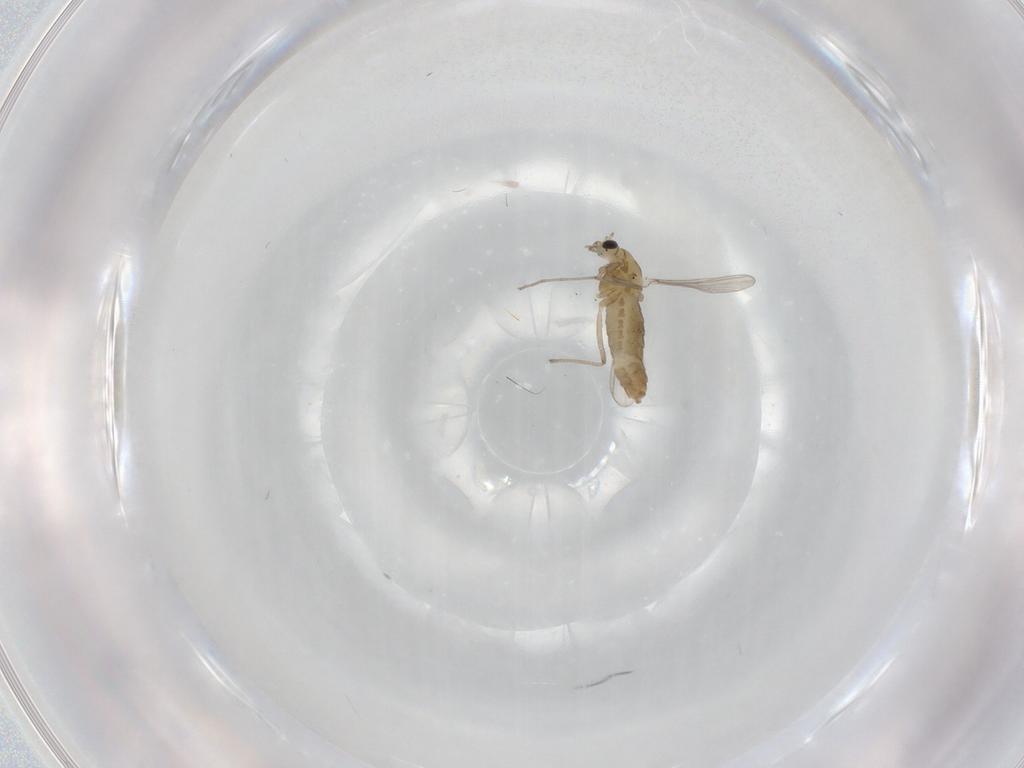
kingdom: Animalia
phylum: Arthropoda
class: Insecta
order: Diptera
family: Chironomidae
